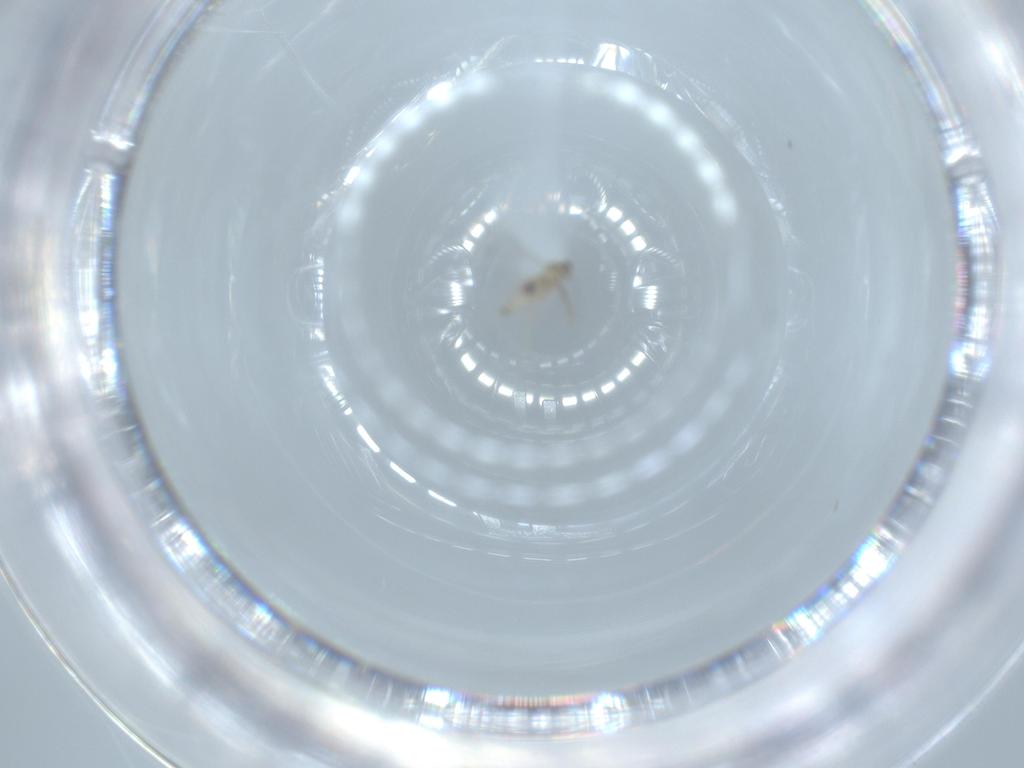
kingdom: Animalia
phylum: Arthropoda
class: Insecta
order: Diptera
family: Cecidomyiidae
